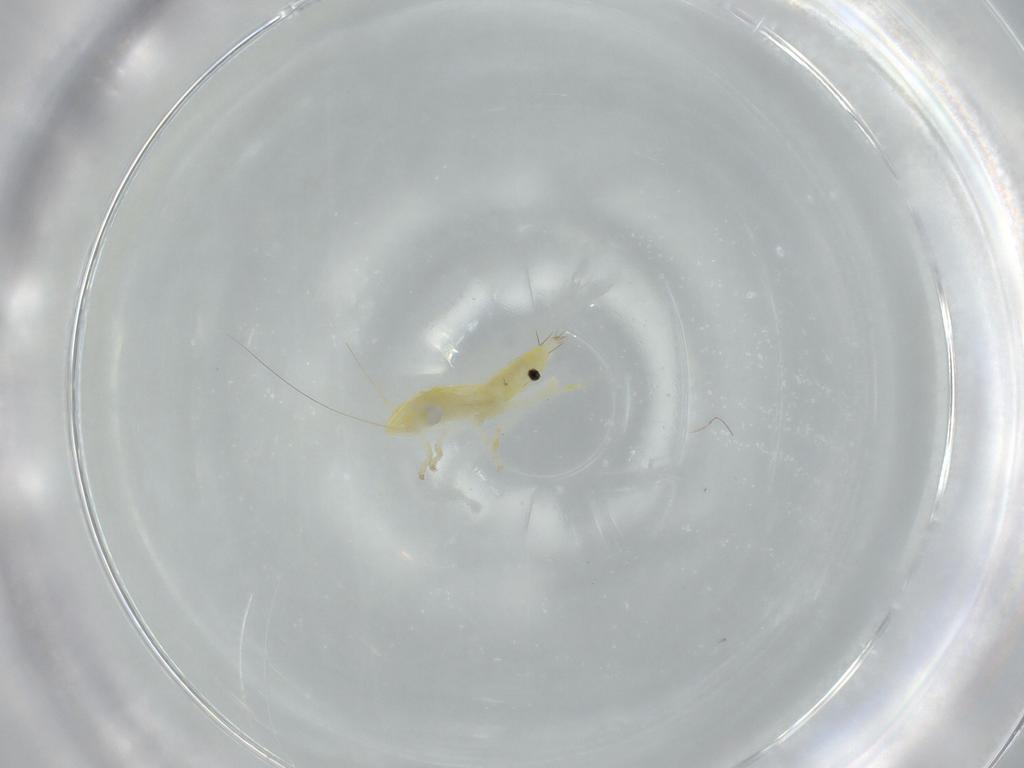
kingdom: Animalia
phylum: Arthropoda
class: Insecta
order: Hemiptera
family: Cicadellidae
